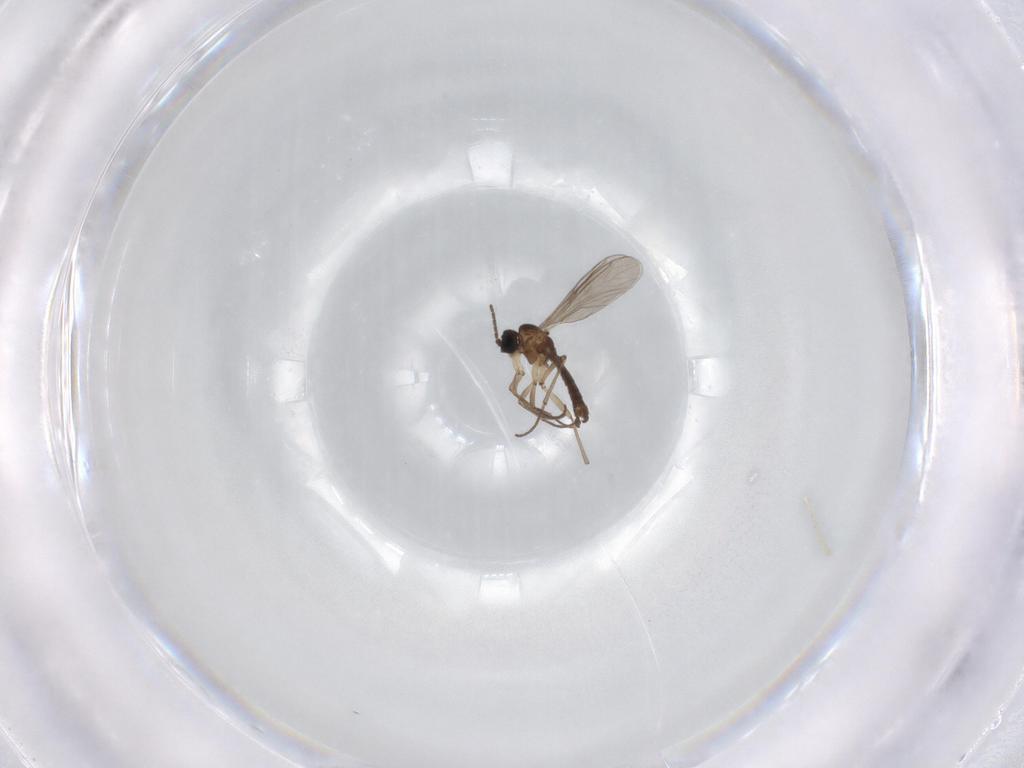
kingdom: Animalia
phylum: Arthropoda
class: Insecta
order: Diptera
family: Sciaridae
